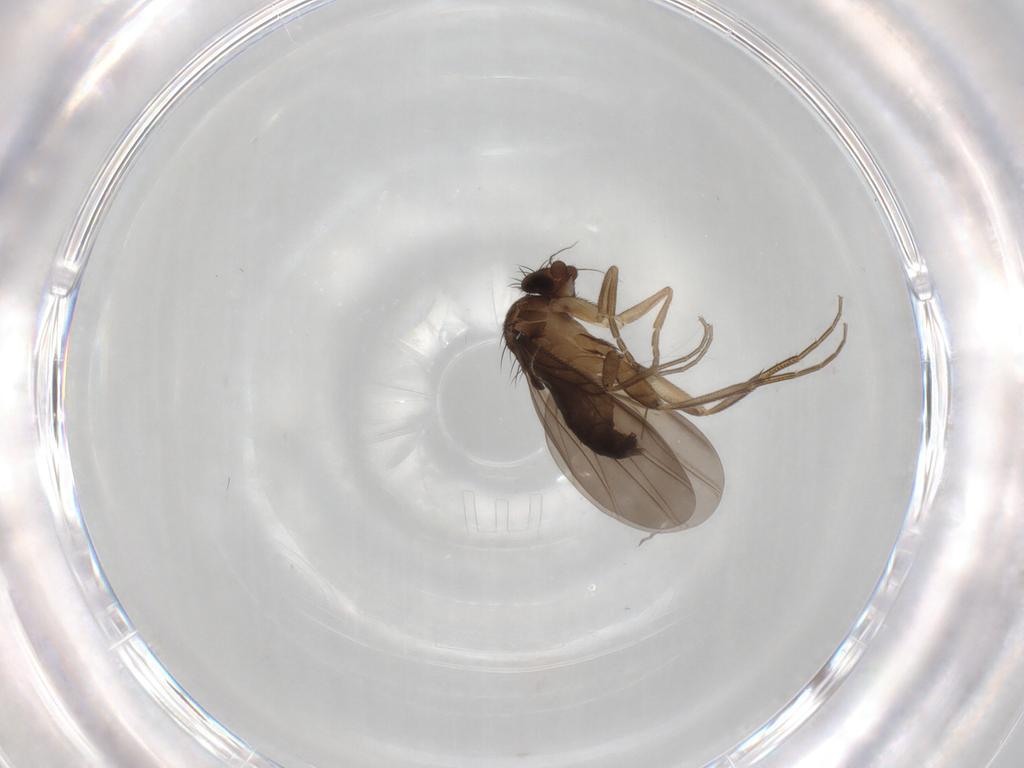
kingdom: Animalia
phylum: Arthropoda
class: Insecta
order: Diptera
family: Phoridae
